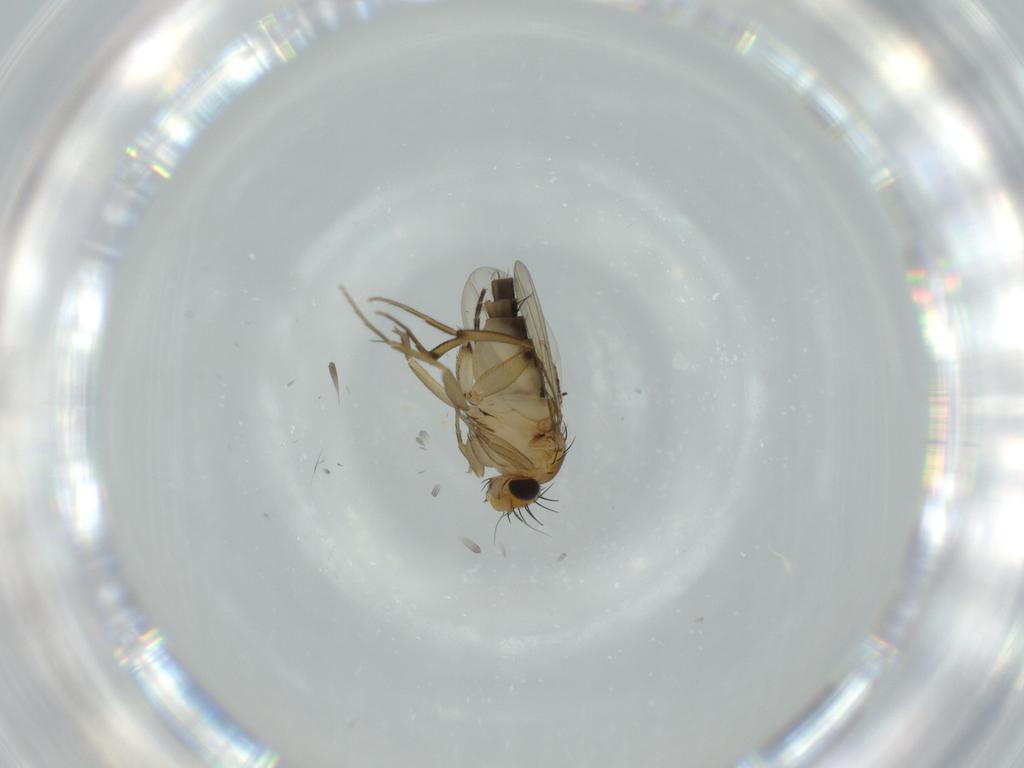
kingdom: Animalia
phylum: Arthropoda
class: Insecta
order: Diptera
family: Phoridae
